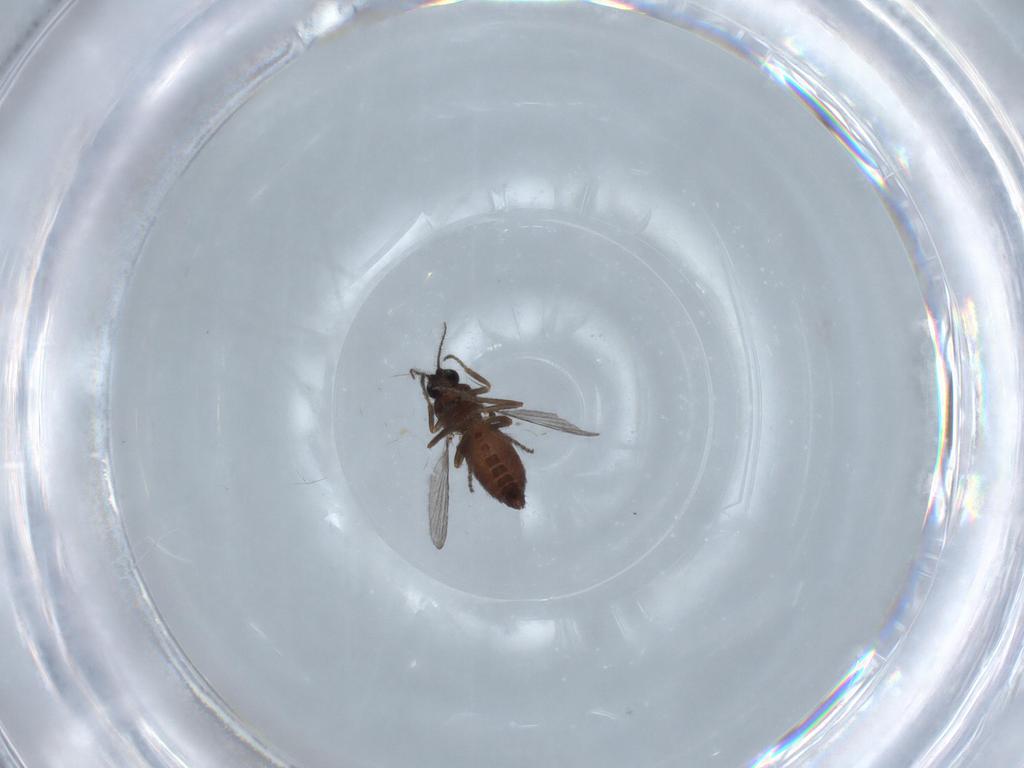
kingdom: Animalia
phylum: Arthropoda
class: Insecta
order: Diptera
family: Ceratopogonidae
